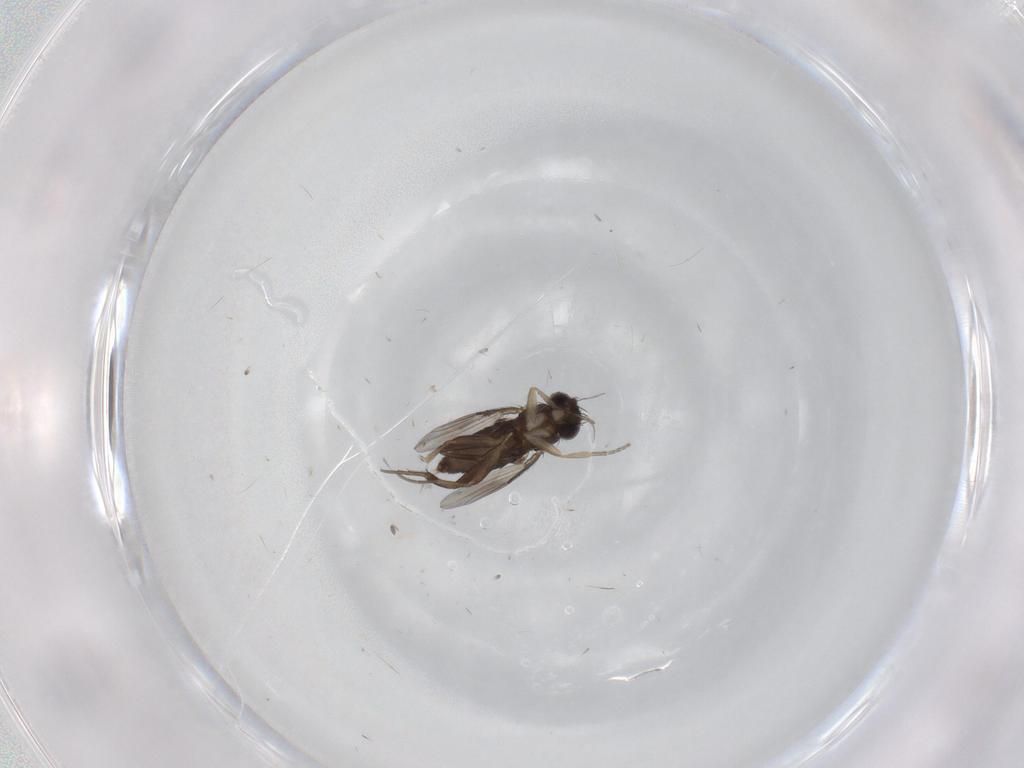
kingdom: Animalia
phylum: Arthropoda
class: Insecta
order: Diptera
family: Phoridae
